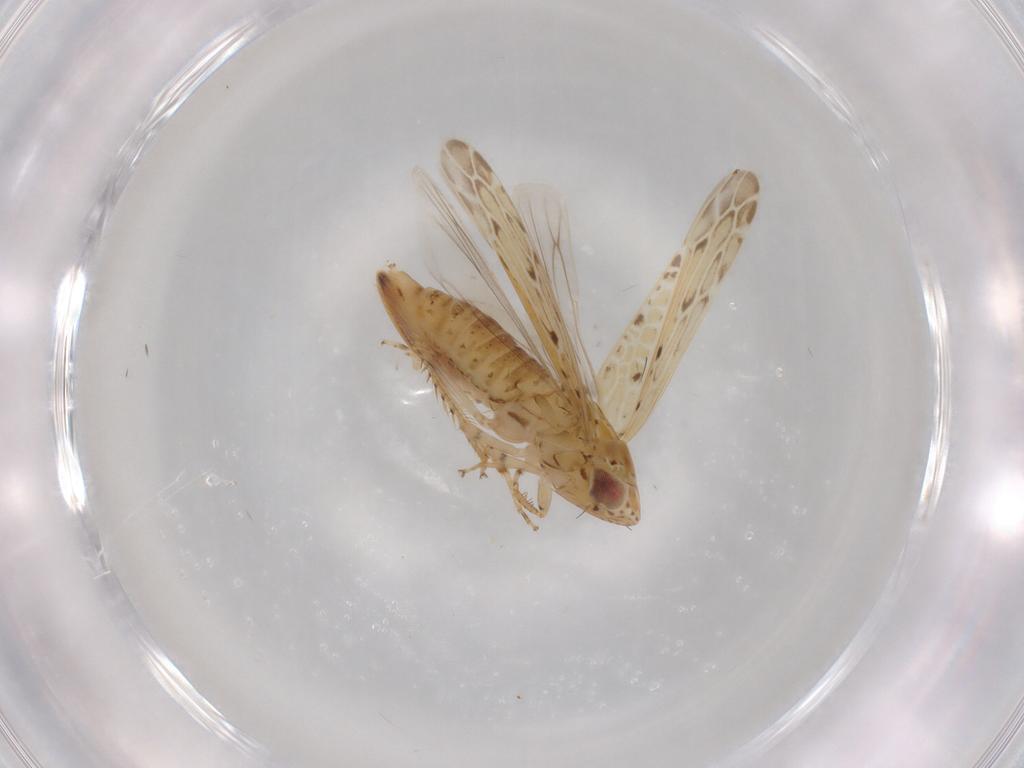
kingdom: Animalia
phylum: Arthropoda
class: Insecta
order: Hemiptera
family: Cicadellidae
